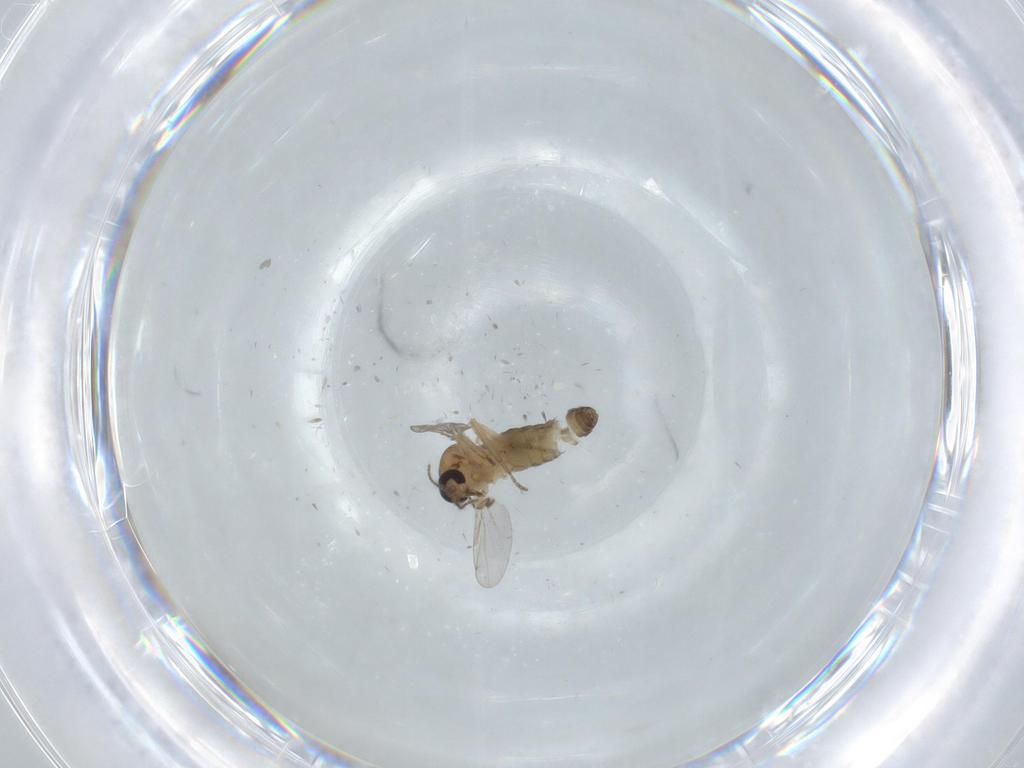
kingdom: Animalia
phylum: Arthropoda
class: Insecta
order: Diptera
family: Ceratopogonidae
